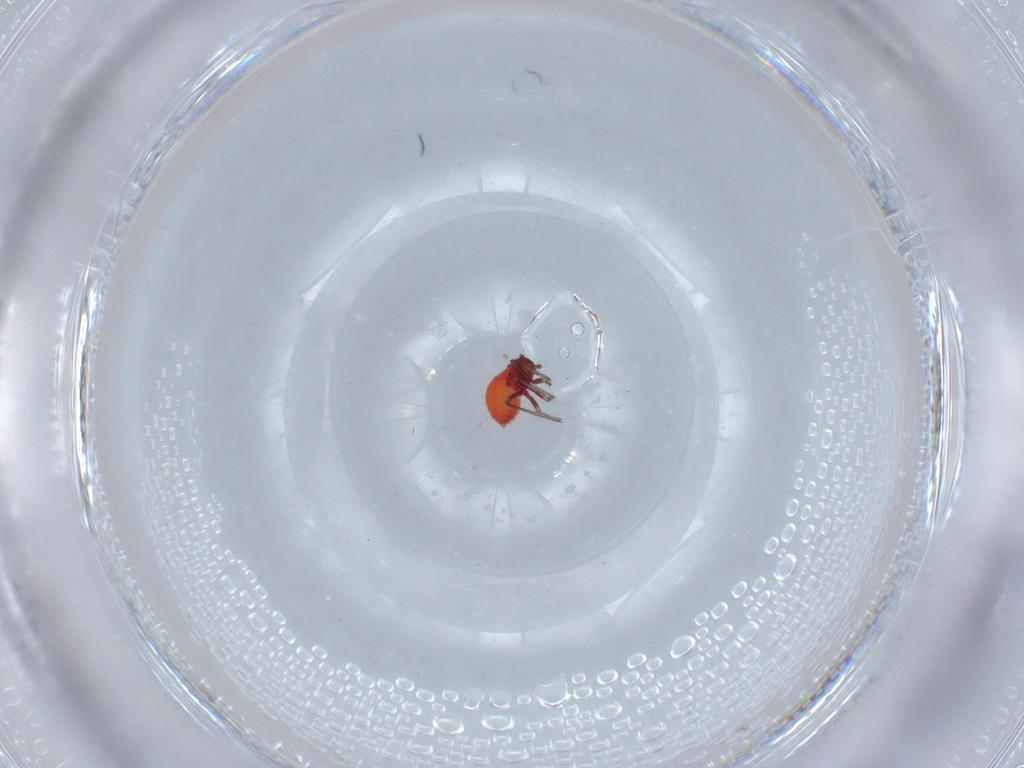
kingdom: Animalia
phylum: Arthropoda
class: Insecta
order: Hemiptera
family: Schizopteridae
